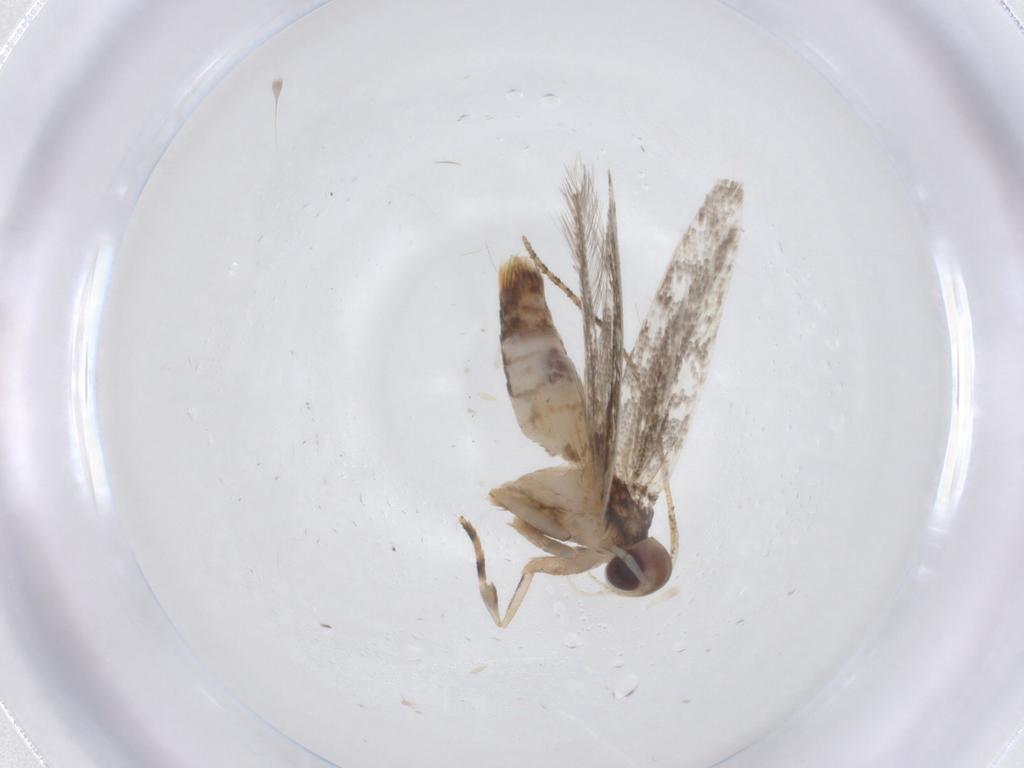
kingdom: Animalia
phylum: Arthropoda
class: Insecta
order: Lepidoptera
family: Cosmopterigidae
